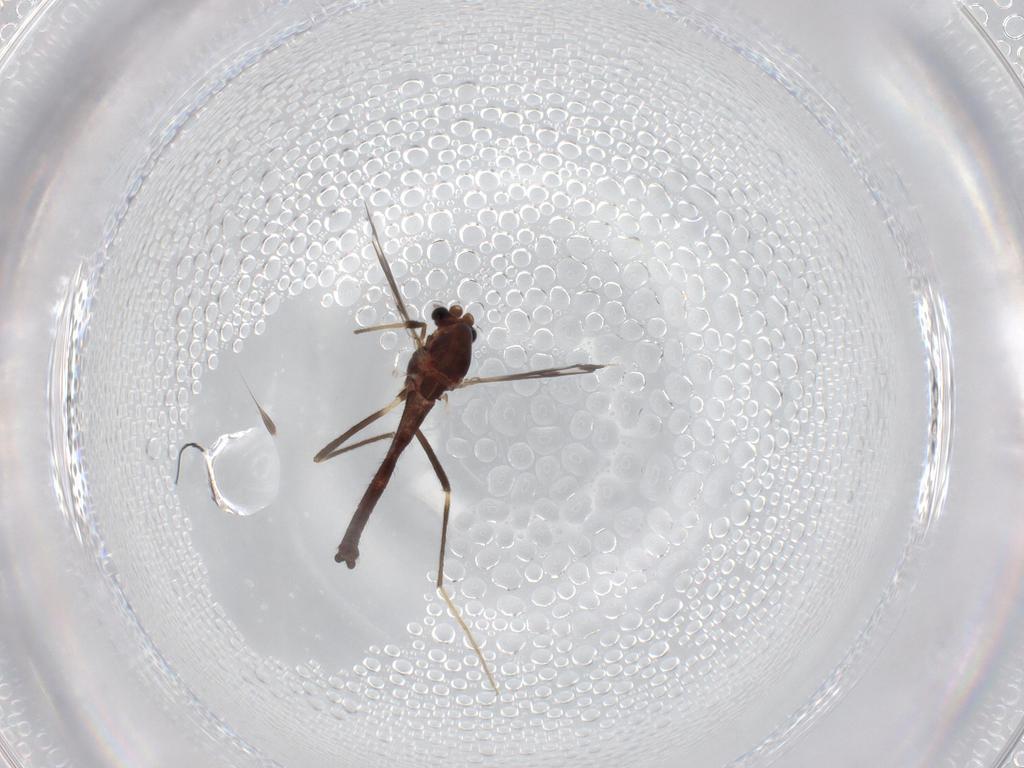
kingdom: Animalia
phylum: Arthropoda
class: Insecta
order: Diptera
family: Chironomidae
